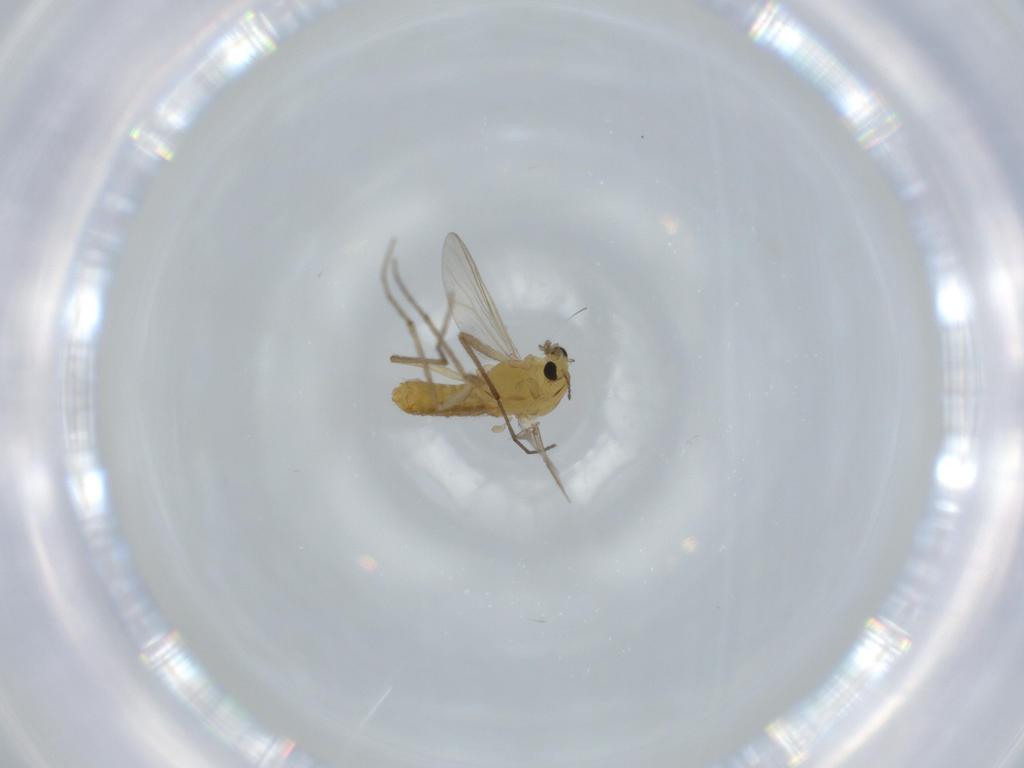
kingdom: Animalia
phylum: Arthropoda
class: Insecta
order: Diptera
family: Chironomidae
